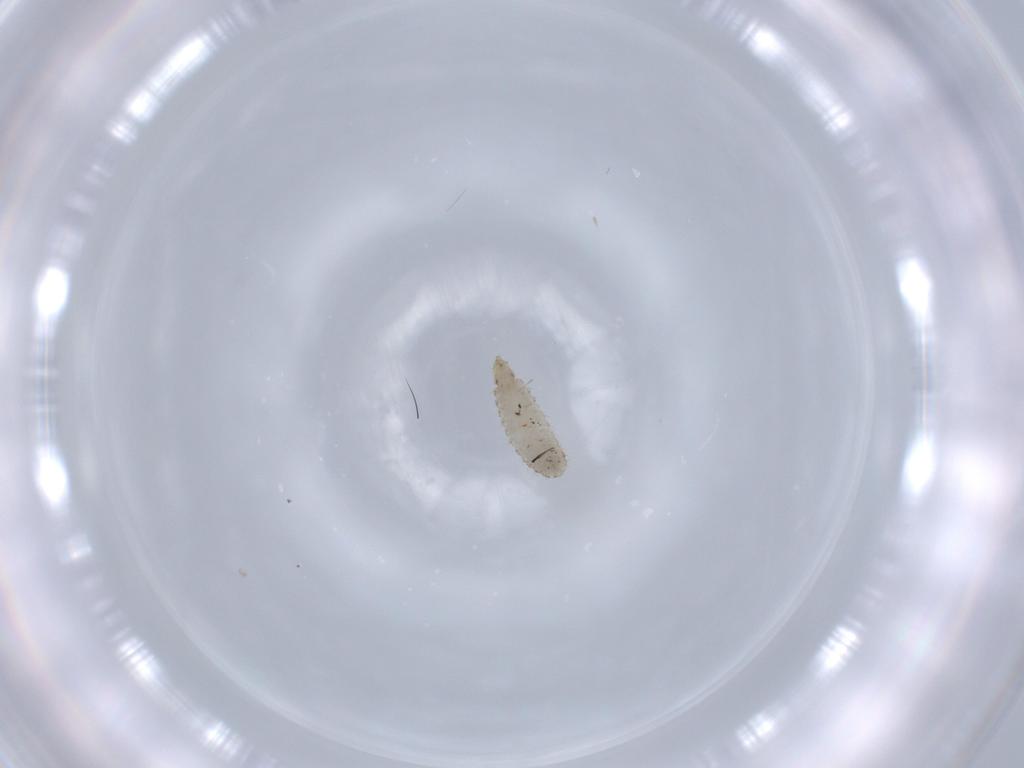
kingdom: Animalia
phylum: Arthropoda
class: Insecta
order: Diptera
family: Stratiomyidae
